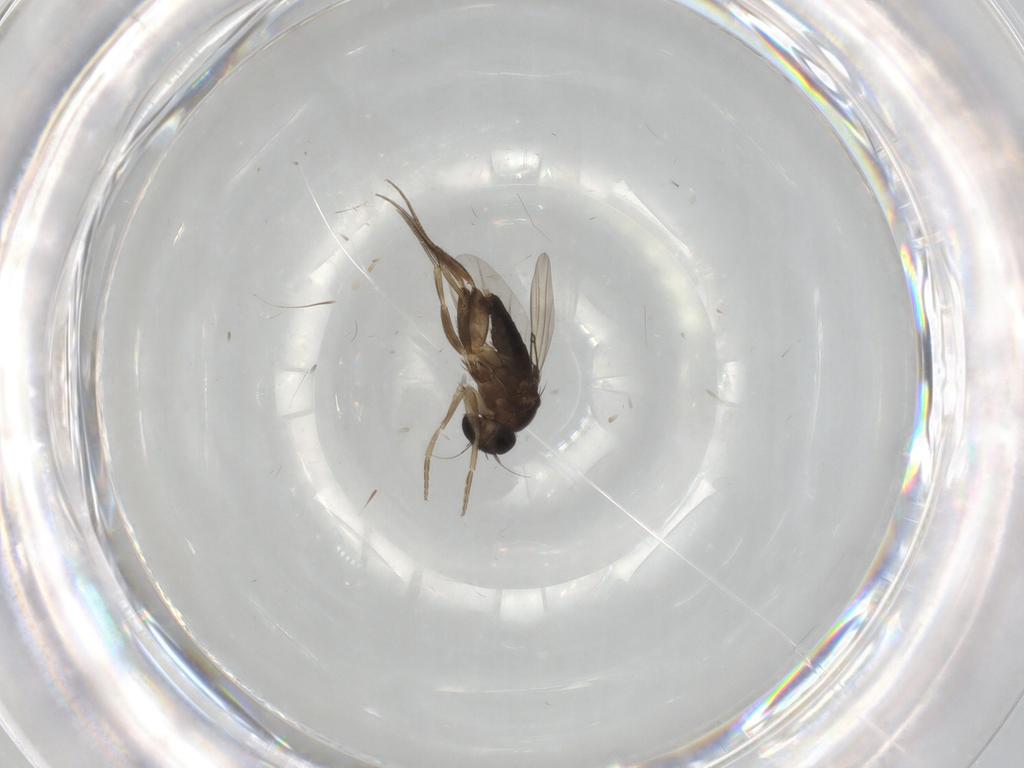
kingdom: Animalia
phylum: Arthropoda
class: Insecta
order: Diptera
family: Phoridae
